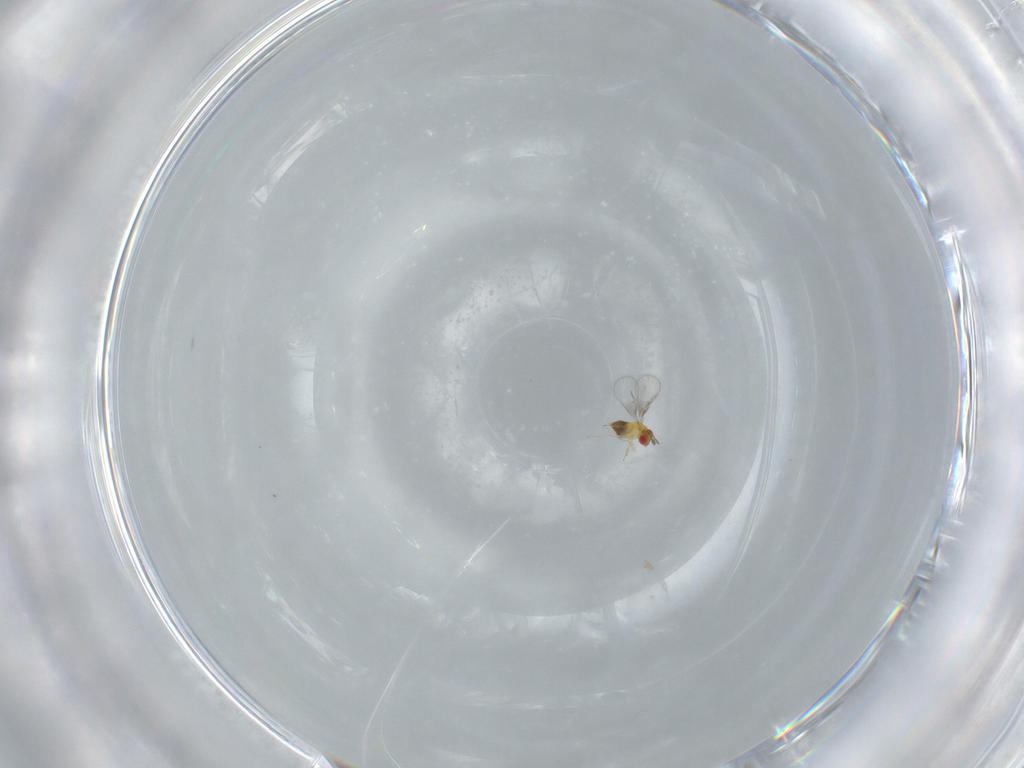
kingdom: Animalia
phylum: Arthropoda
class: Insecta
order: Hymenoptera
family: Trichogrammatidae
